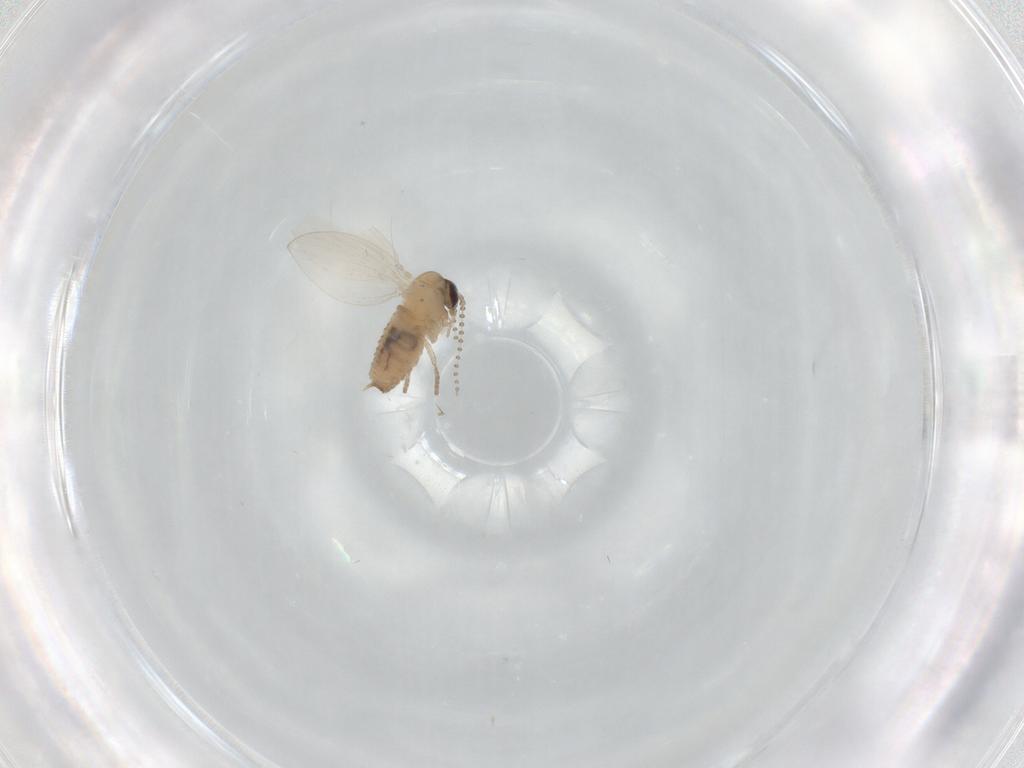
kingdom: Animalia
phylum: Arthropoda
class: Insecta
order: Diptera
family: Psychodidae
